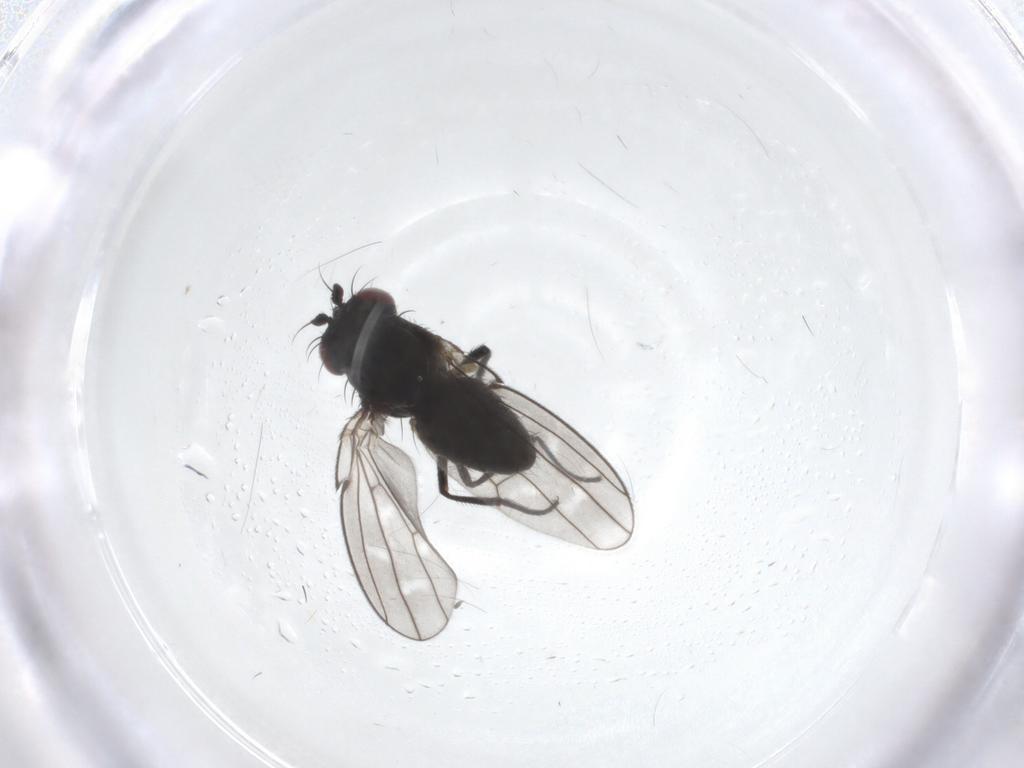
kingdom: Animalia
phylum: Arthropoda
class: Insecta
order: Diptera
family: Ephydridae
